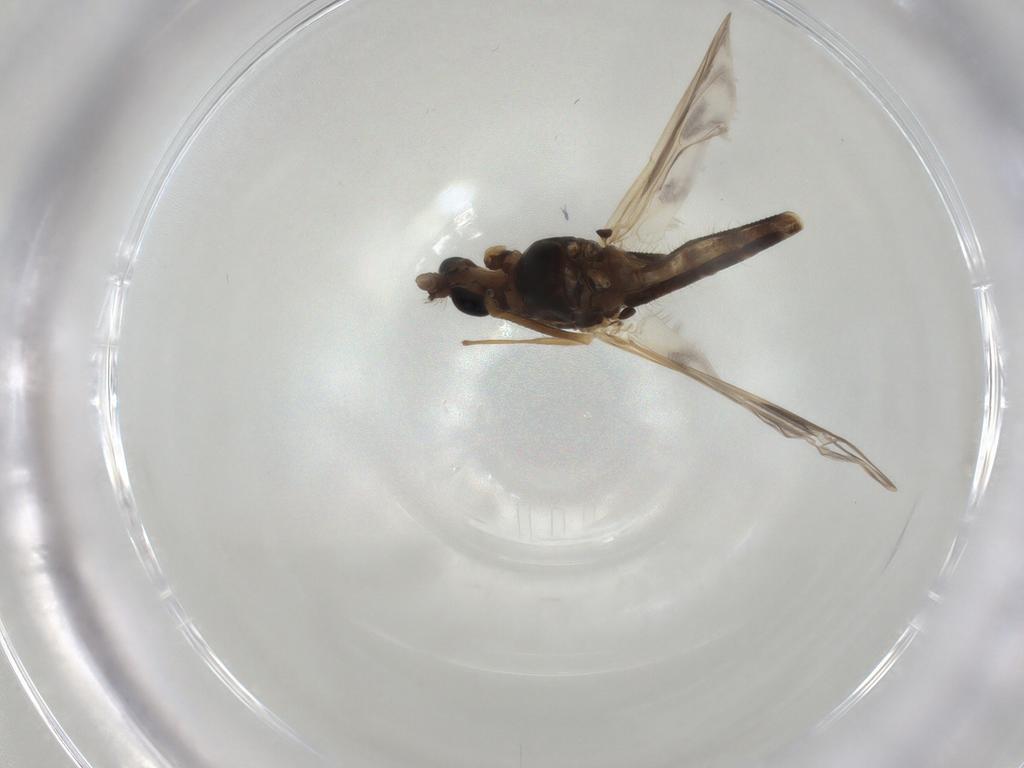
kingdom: Animalia
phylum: Arthropoda
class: Insecta
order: Diptera
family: Chironomidae
